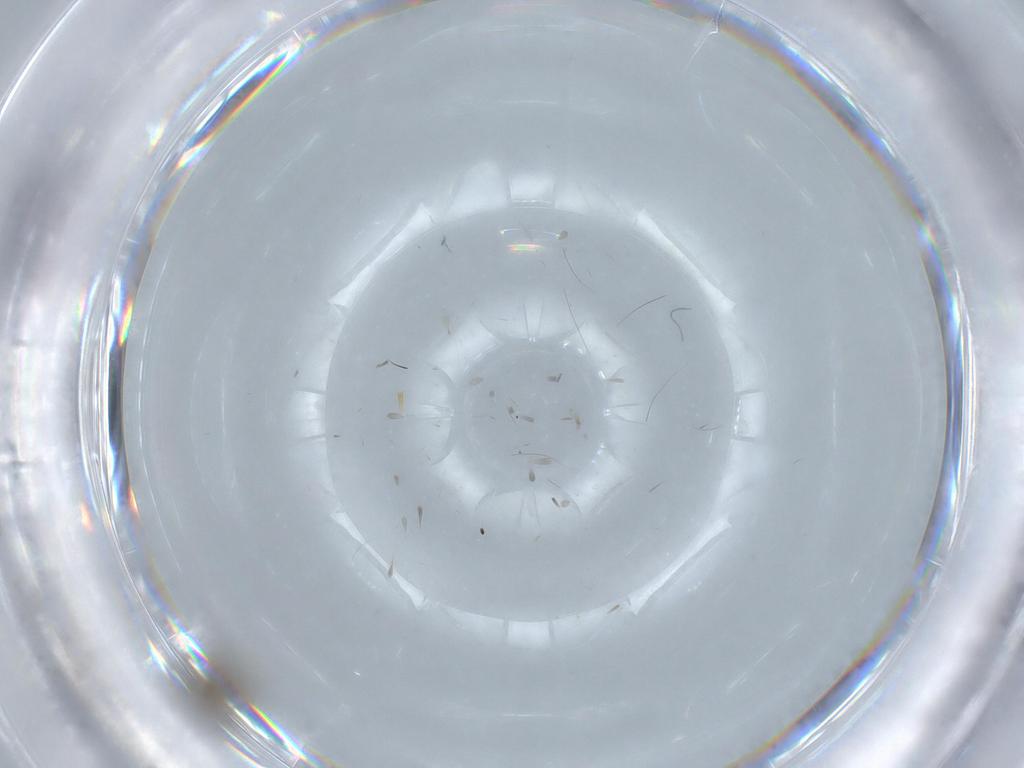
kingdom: Animalia
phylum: Arthropoda
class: Insecta
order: Diptera
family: Psychodidae
